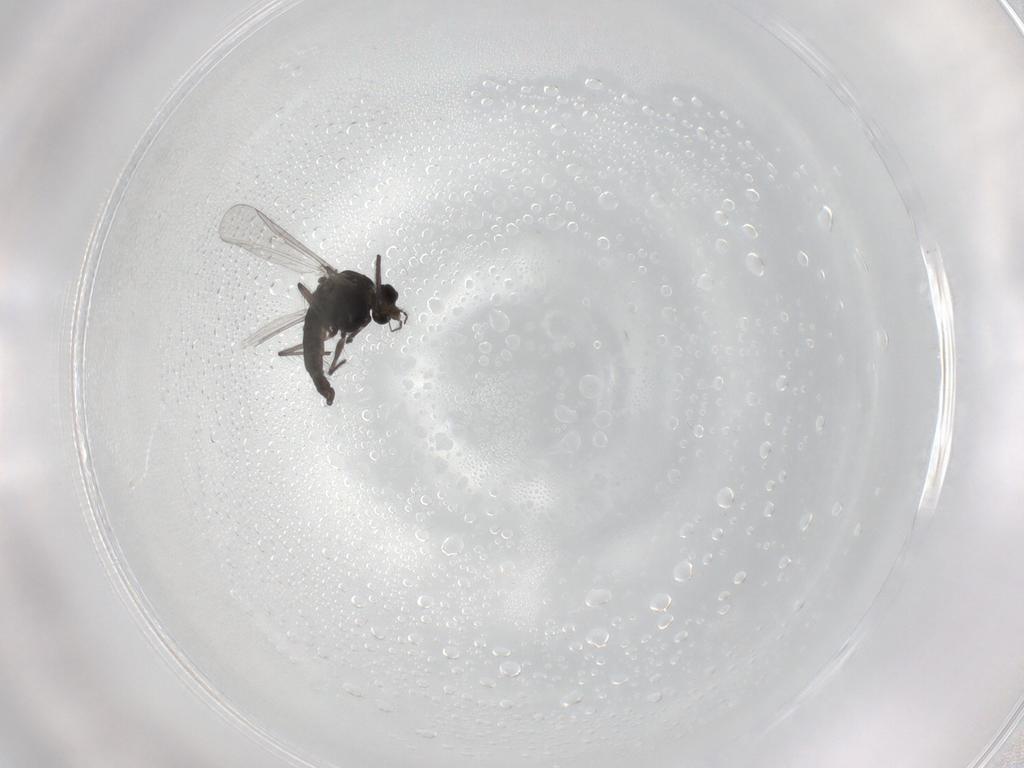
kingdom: Animalia
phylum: Arthropoda
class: Insecta
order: Diptera
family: Chironomidae
